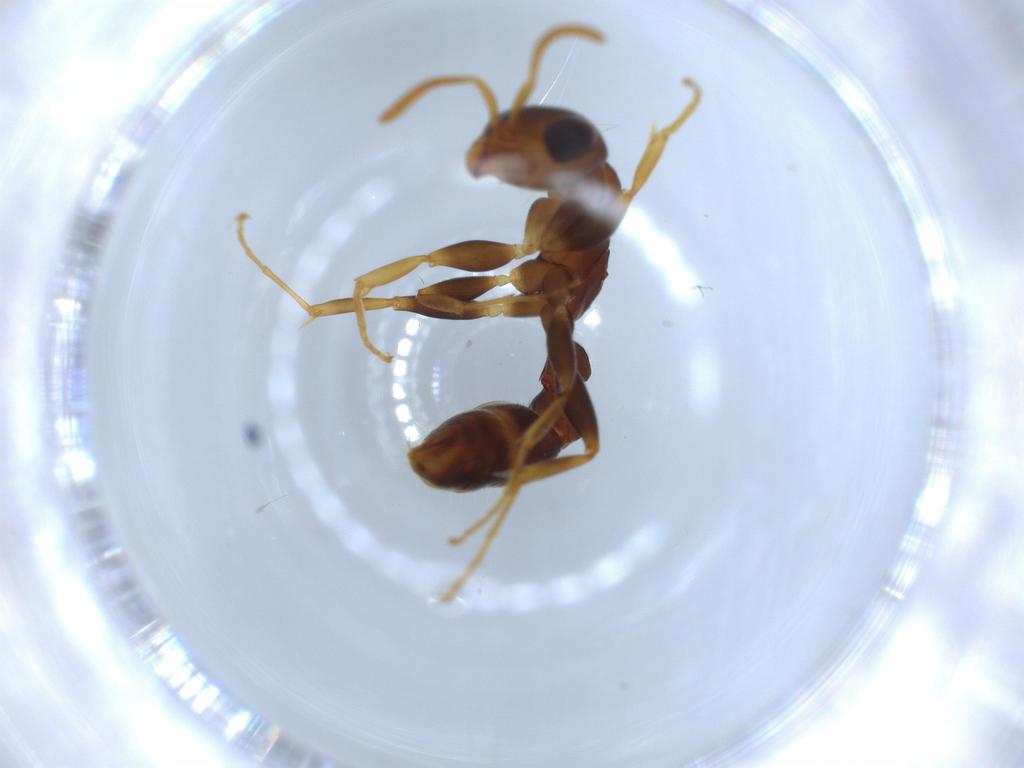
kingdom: Animalia
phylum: Arthropoda
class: Insecta
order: Hymenoptera
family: Formicidae
